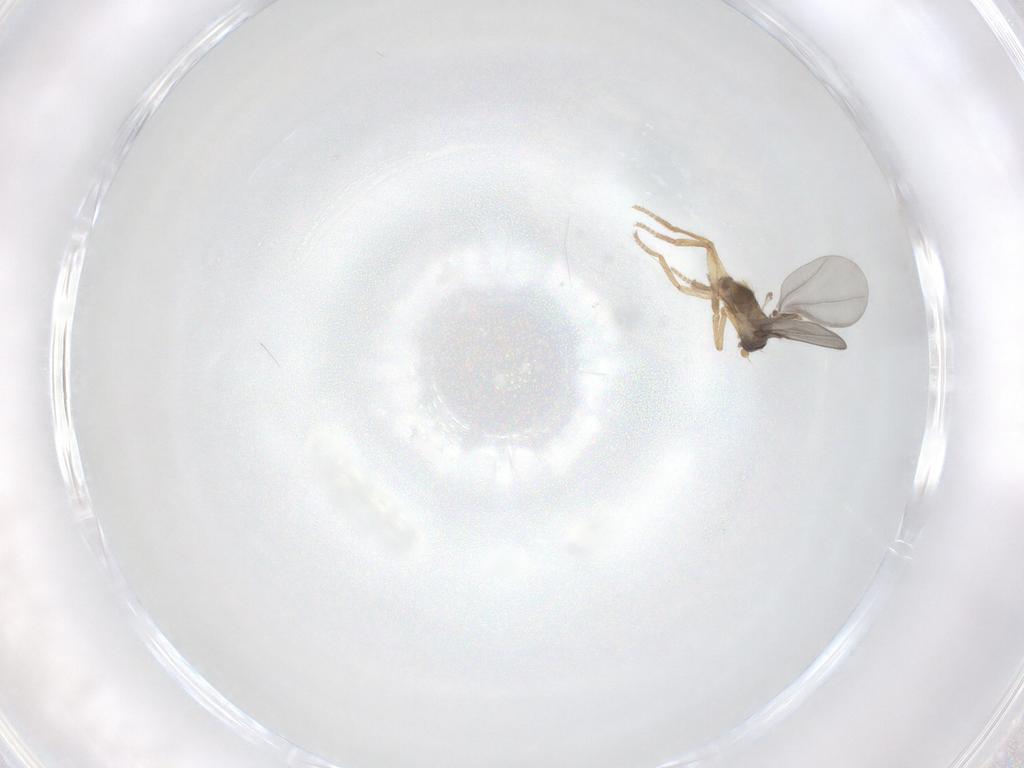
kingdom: Animalia
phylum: Arthropoda
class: Insecta
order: Diptera
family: Phoridae
